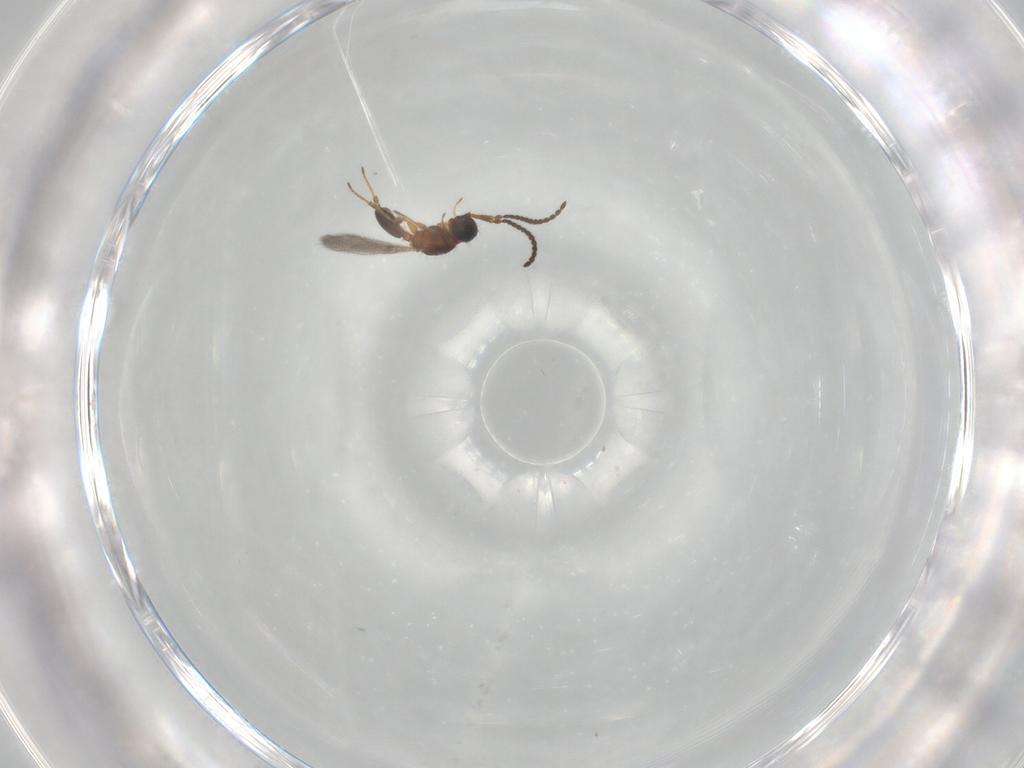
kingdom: Animalia
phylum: Arthropoda
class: Insecta
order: Hymenoptera
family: Diapriidae
